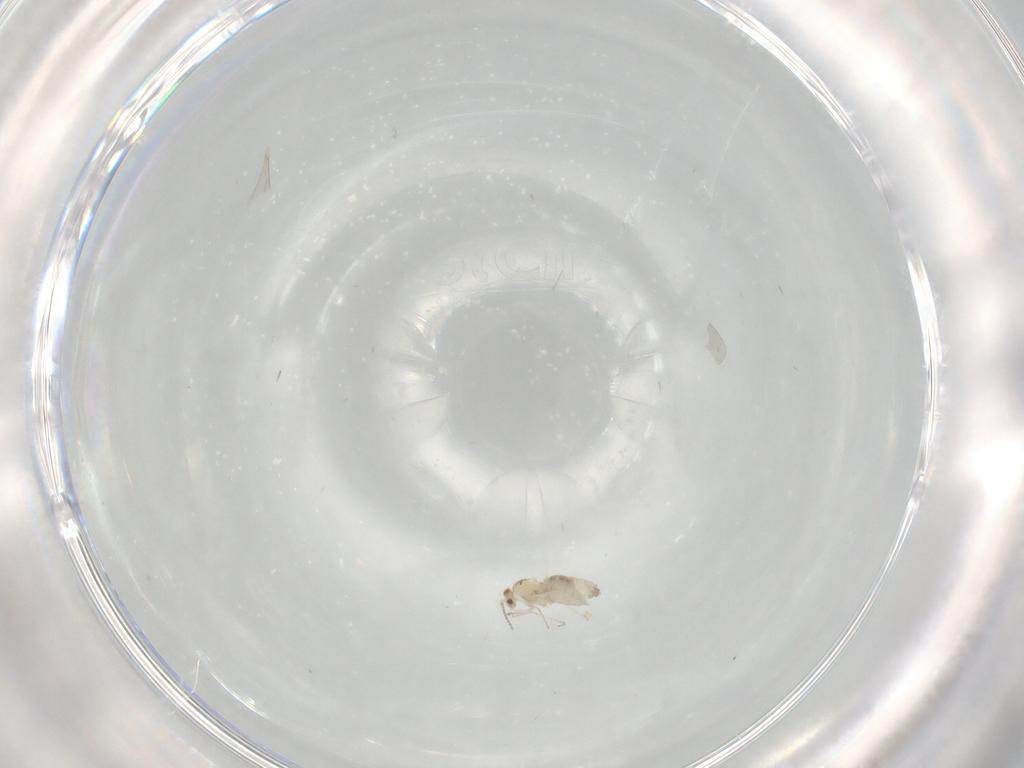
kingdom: Animalia
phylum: Arthropoda
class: Insecta
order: Diptera
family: Cecidomyiidae
